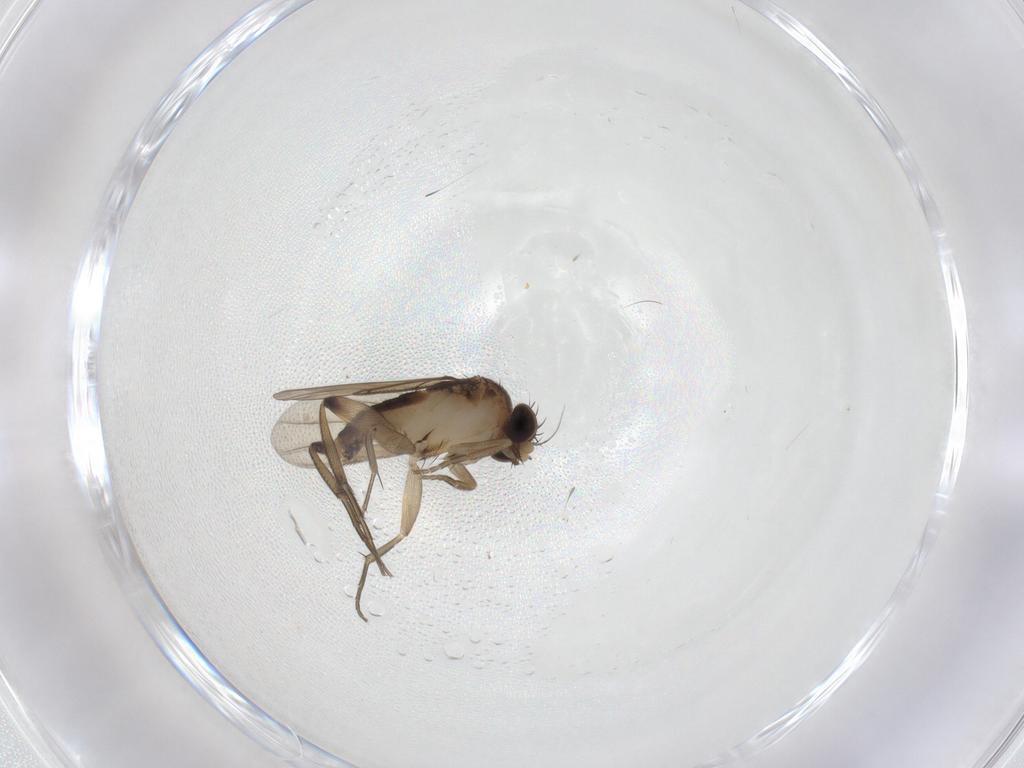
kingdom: Animalia
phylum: Arthropoda
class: Insecta
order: Diptera
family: Phoridae
